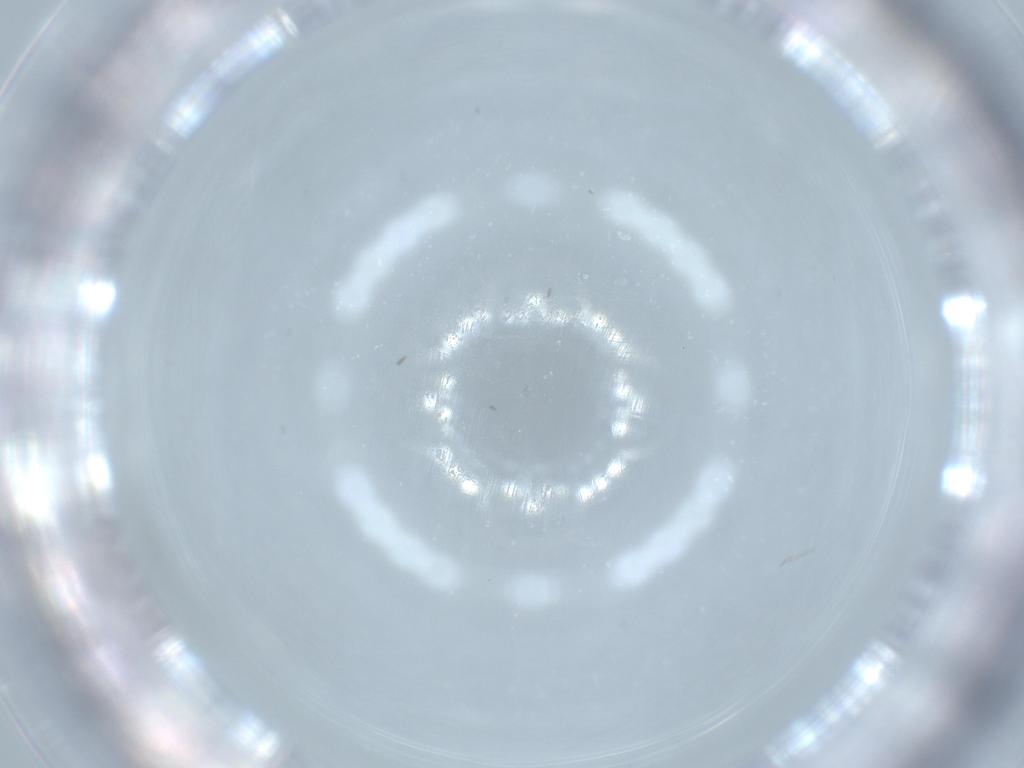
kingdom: Animalia
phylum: Arthropoda
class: Insecta
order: Diptera
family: Sciaridae
